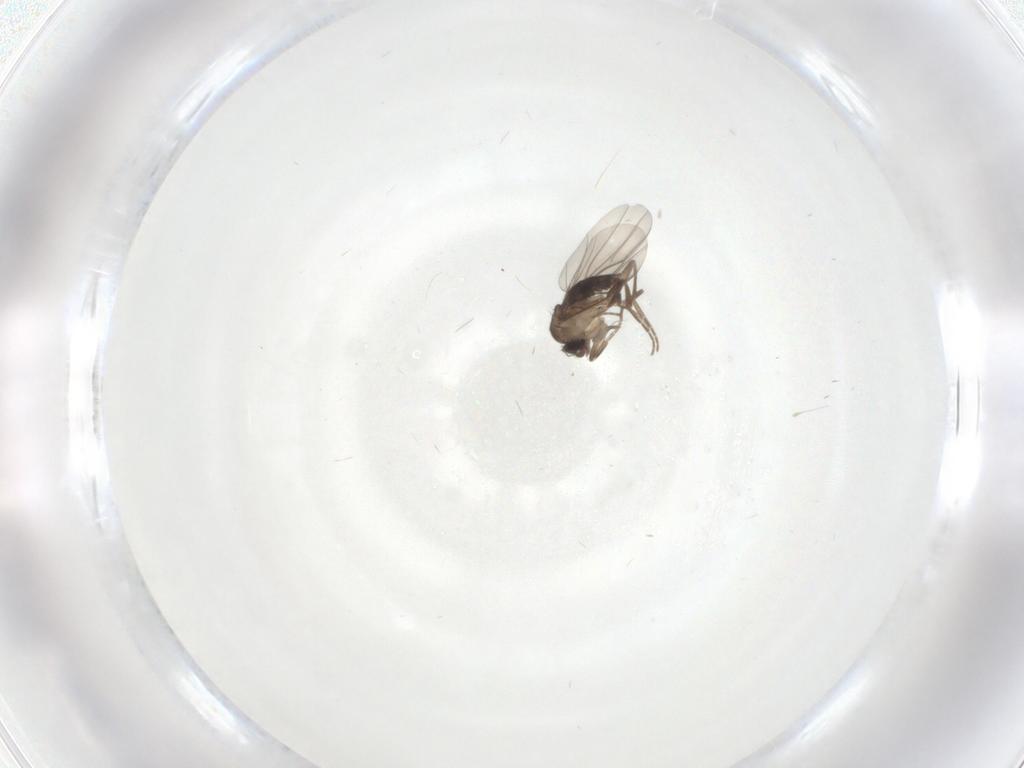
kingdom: Animalia
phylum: Arthropoda
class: Insecta
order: Diptera
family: Phoridae
